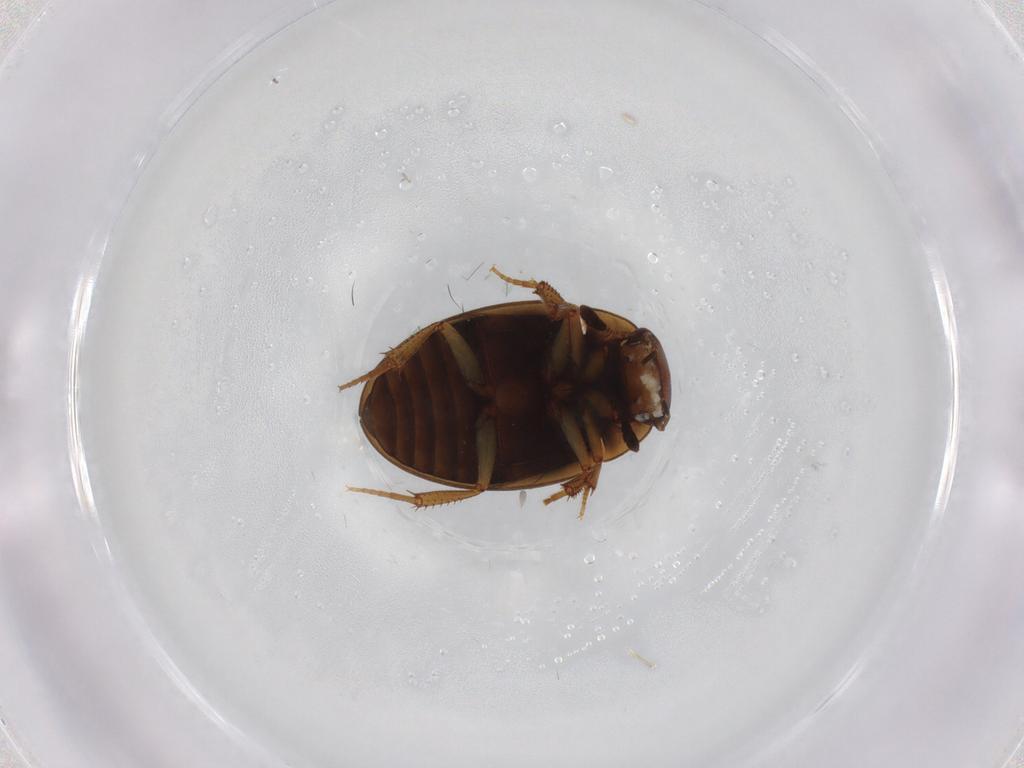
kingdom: Animalia
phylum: Arthropoda
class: Insecta
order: Coleoptera
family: Hydrophilidae
